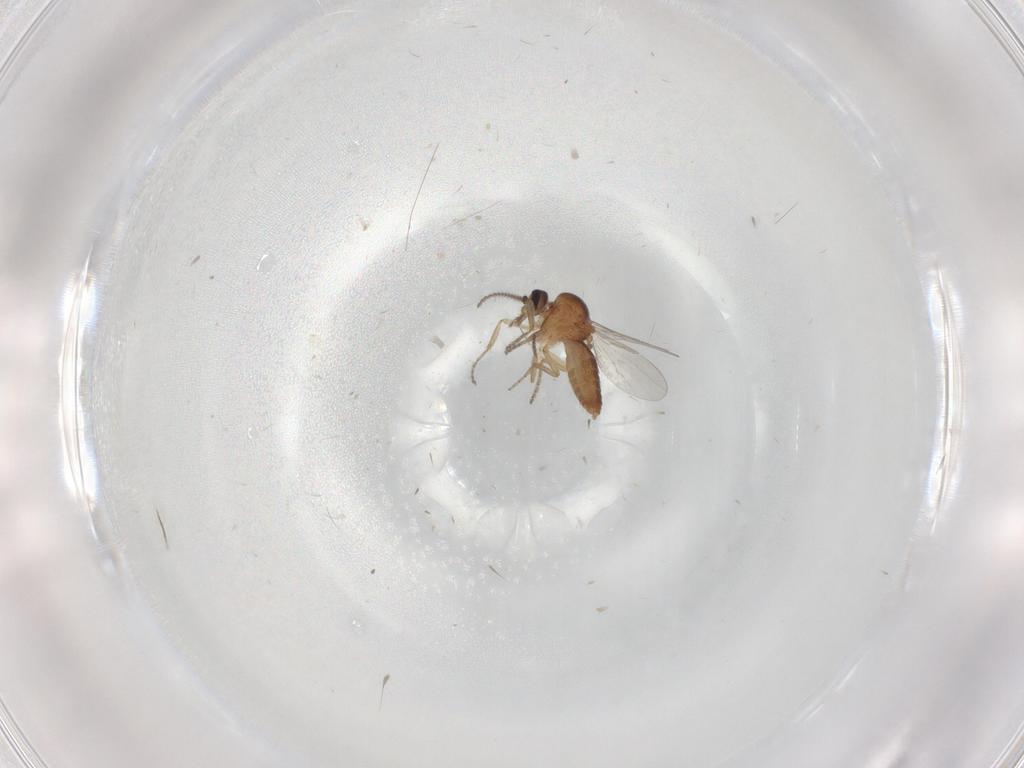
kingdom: Animalia
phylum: Arthropoda
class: Insecta
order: Diptera
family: Ceratopogonidae
